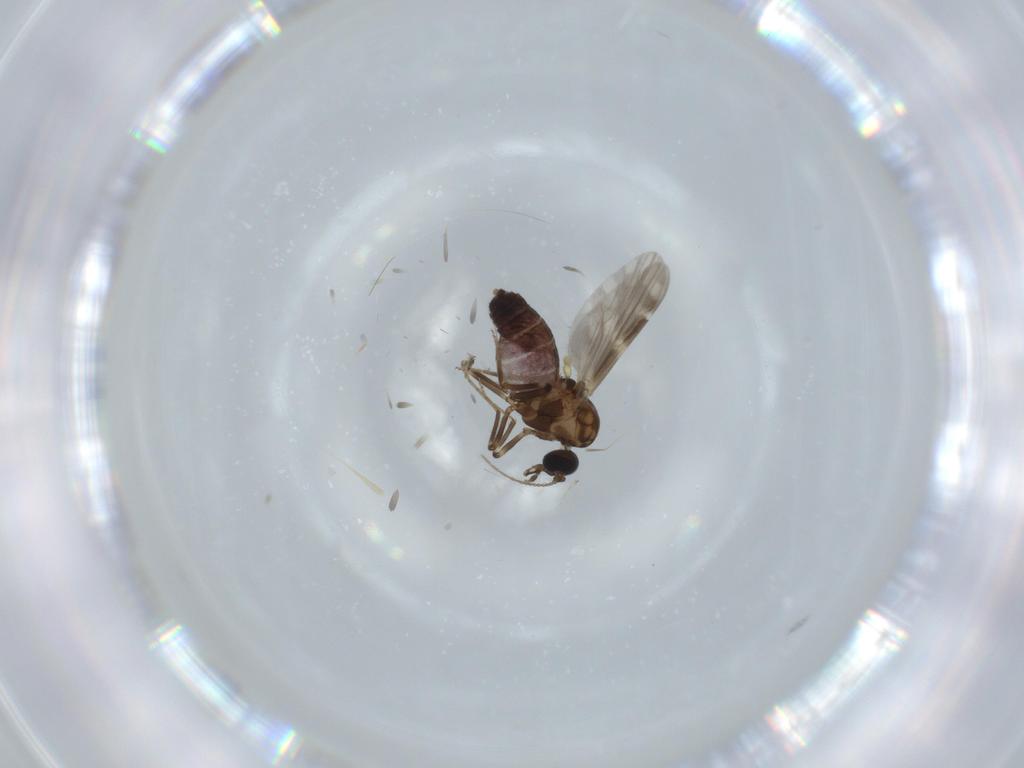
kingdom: Animalia
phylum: Arthropoda
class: Insecta
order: Diptera
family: Ceratopogonidae
